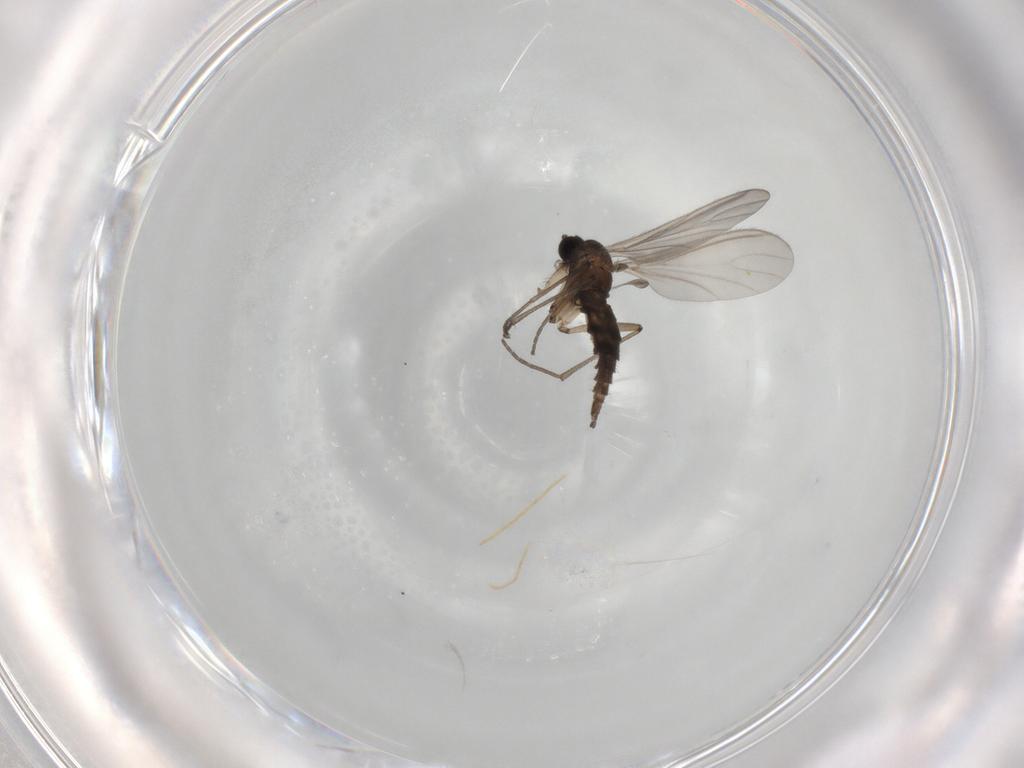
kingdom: Animalia
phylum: Arthropoda
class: Insecta
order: Diptera
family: Sciaridae
